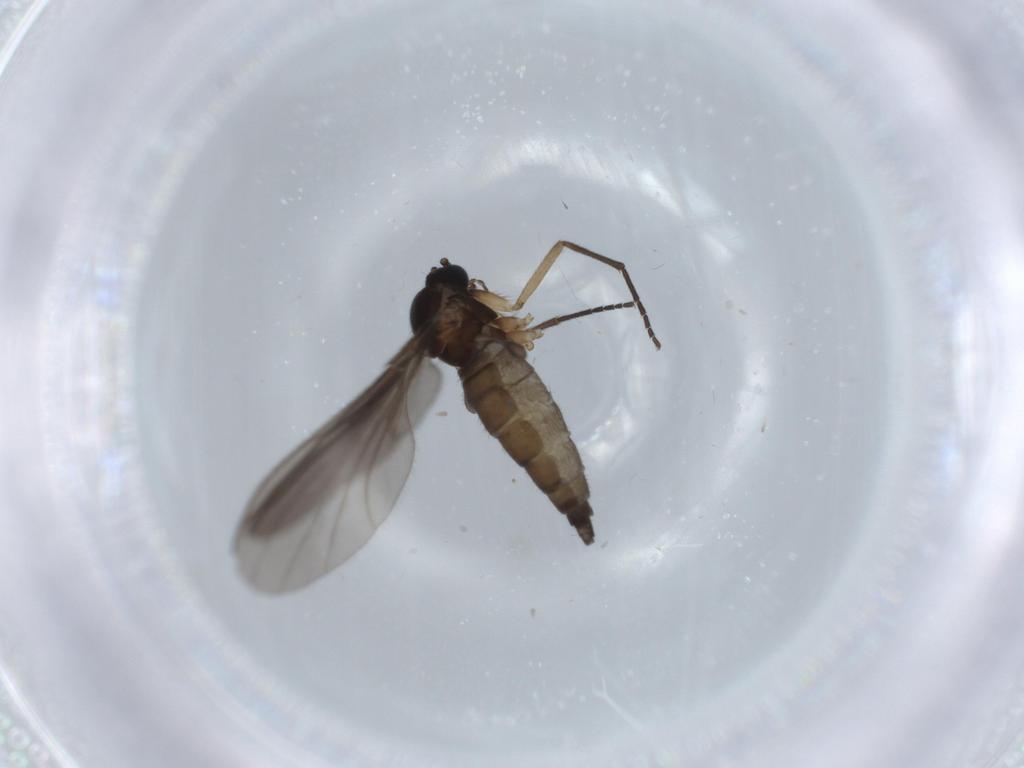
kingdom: Animalia
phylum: Arthropoda
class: Insecta
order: Diptera
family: Sciaridae
